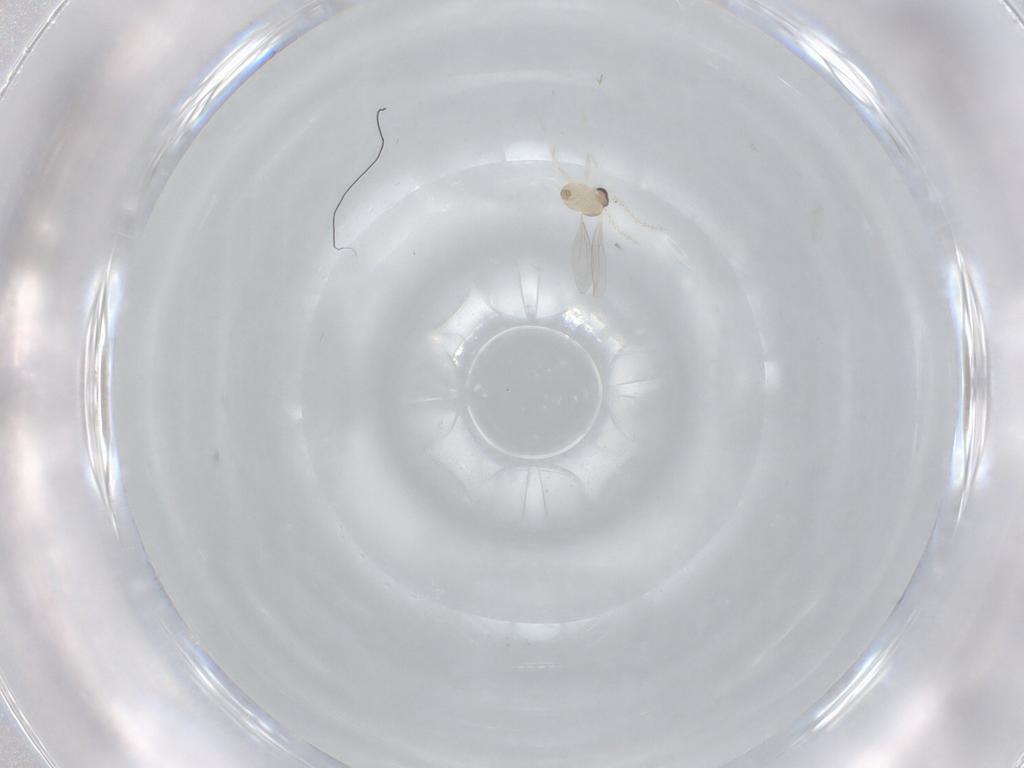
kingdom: Animalia
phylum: Arthropoda
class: Insecta
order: Diptera
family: Cecidomyiidae
